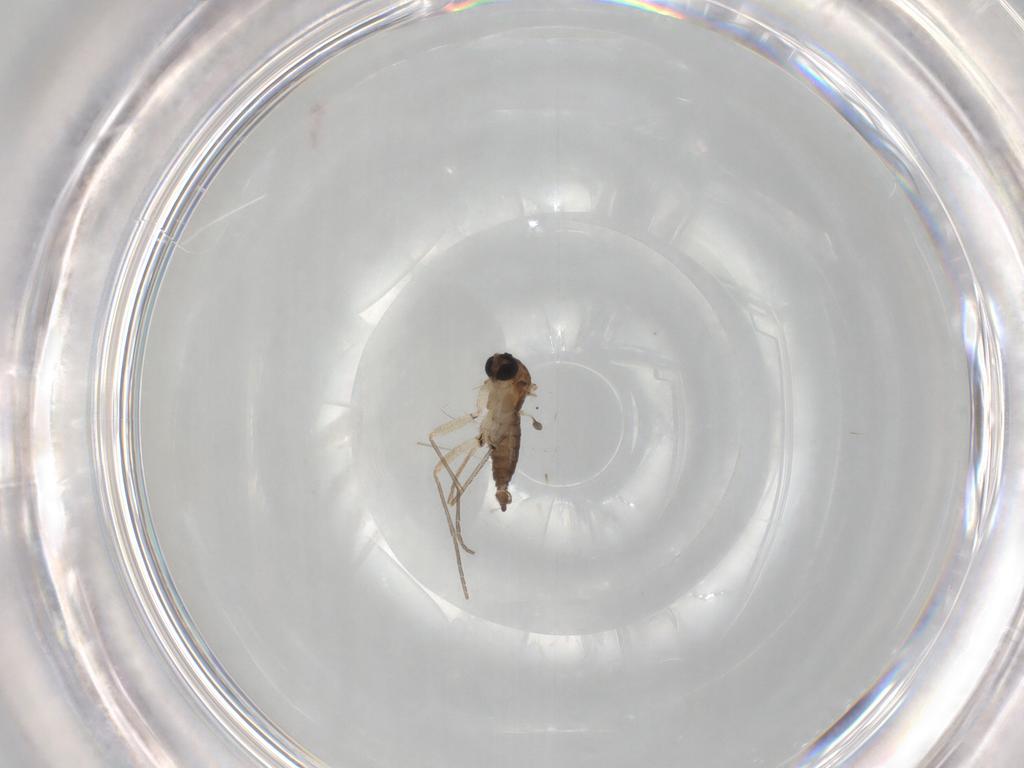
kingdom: Animalia
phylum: Arthropoda
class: Insecta
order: Diptera
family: Sciaridae
